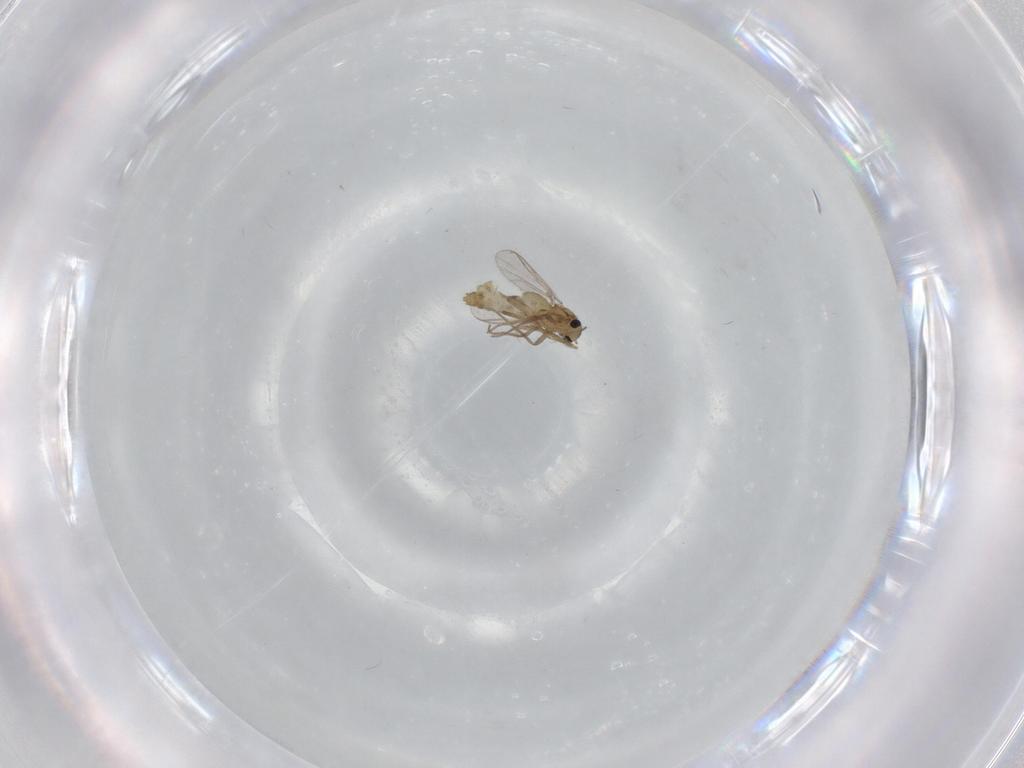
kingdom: Animalia
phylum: Arthropoda
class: Insecta
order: Diptera
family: Chironomidae
